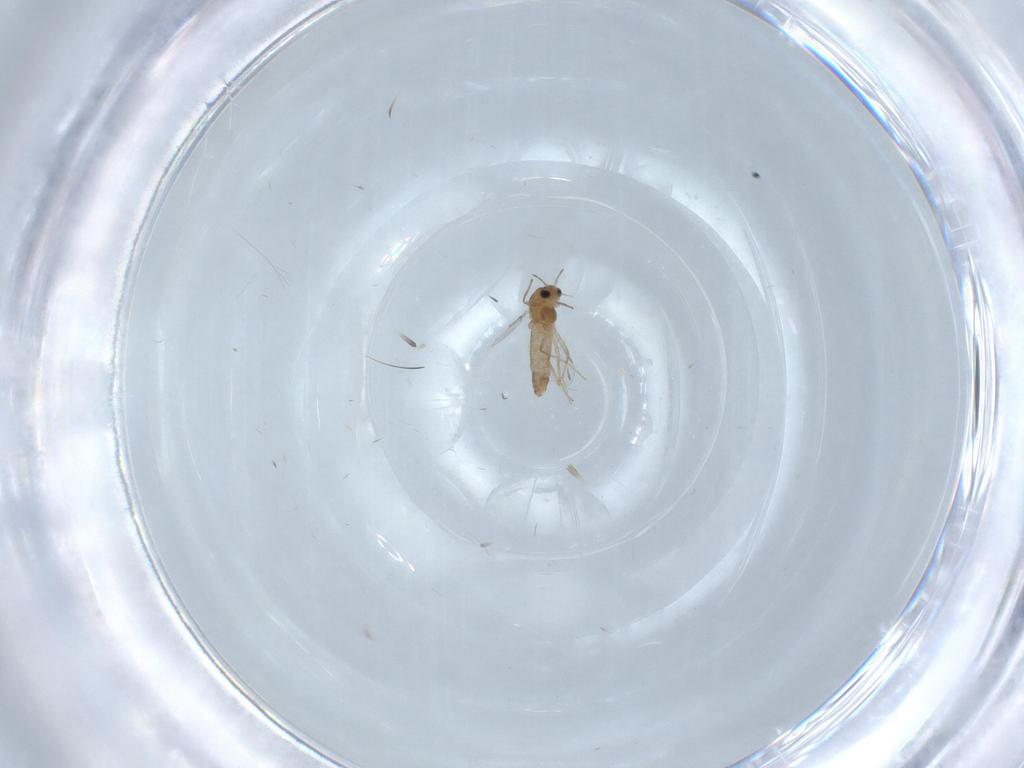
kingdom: Animalia
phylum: Arthropoda
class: Insecta
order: Diptera
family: Chironomidae
